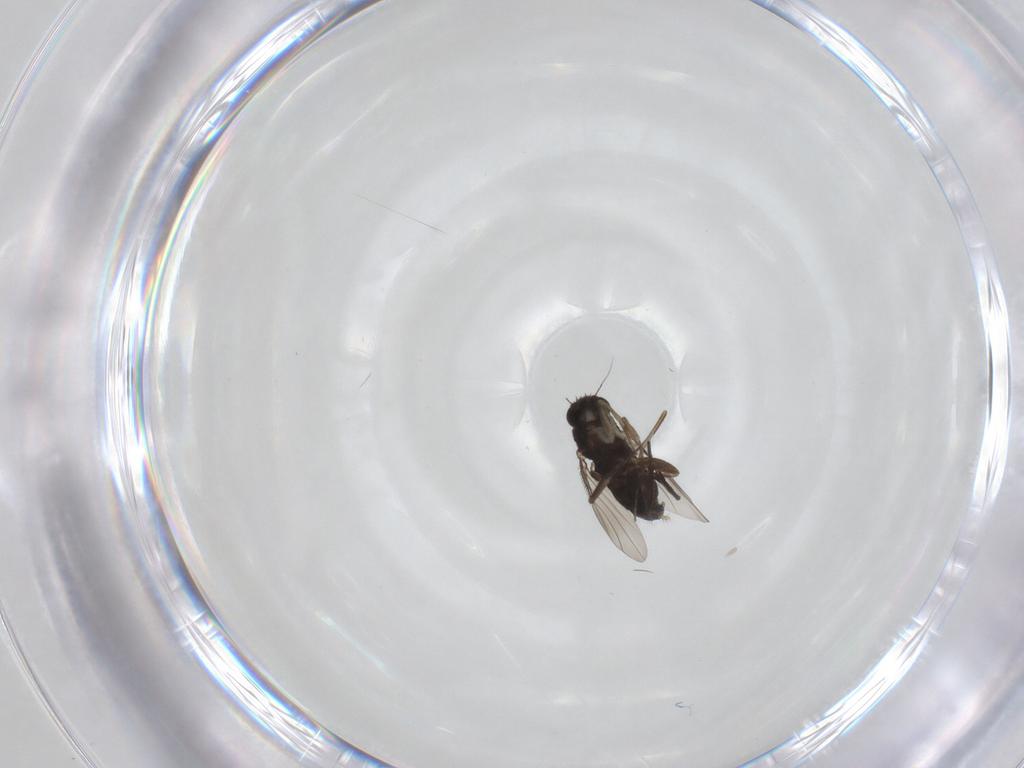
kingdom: Animalia
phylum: Arthropoda
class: Insecta
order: Diptera
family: Phoridae
